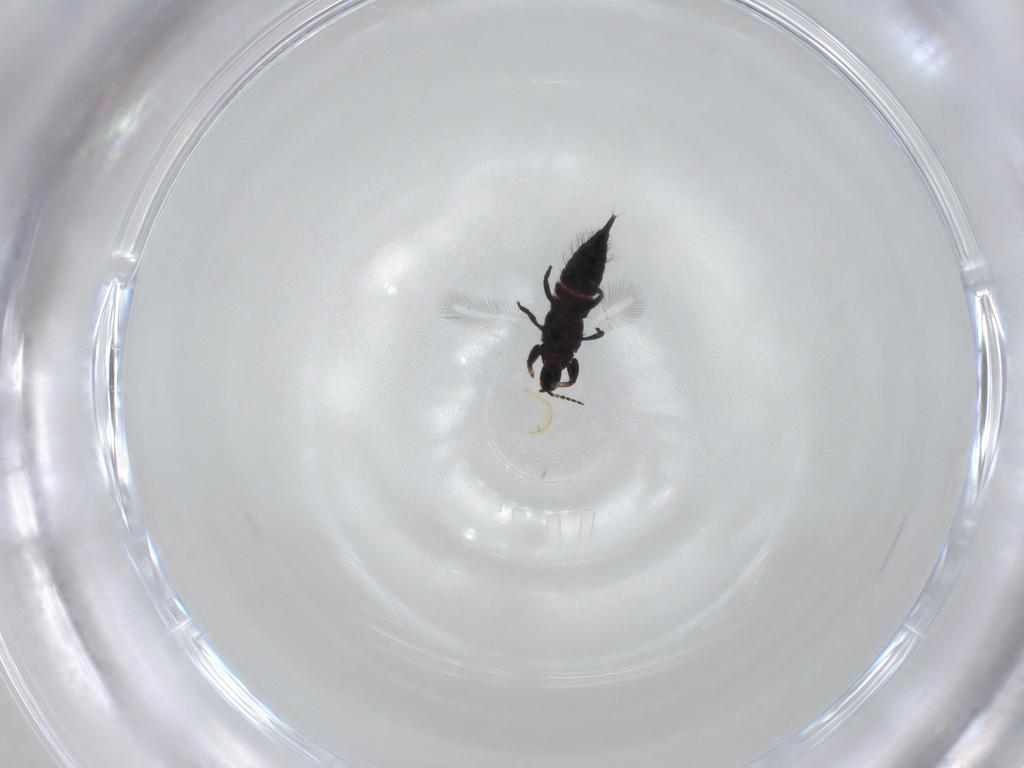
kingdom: Animalia
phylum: Arthropoda
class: Insecta
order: Thysanoptera
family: Phlaeothripidae
